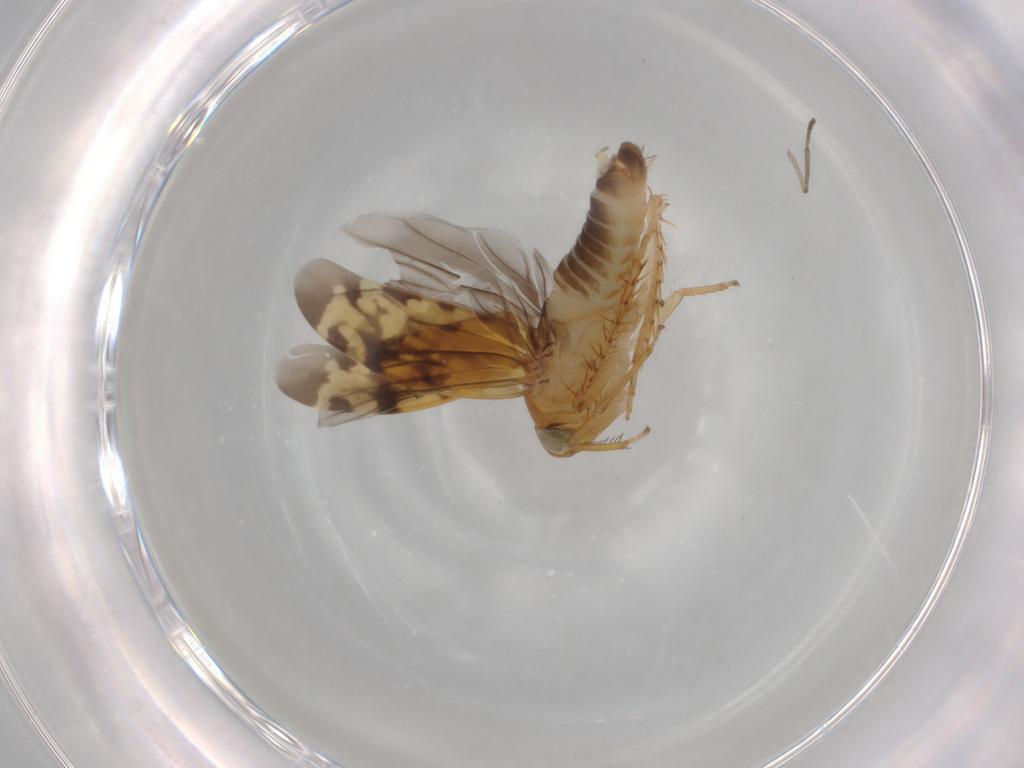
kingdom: Animalia
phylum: Arthropoda
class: Insecta
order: Hemiptera
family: Cicadellidae
